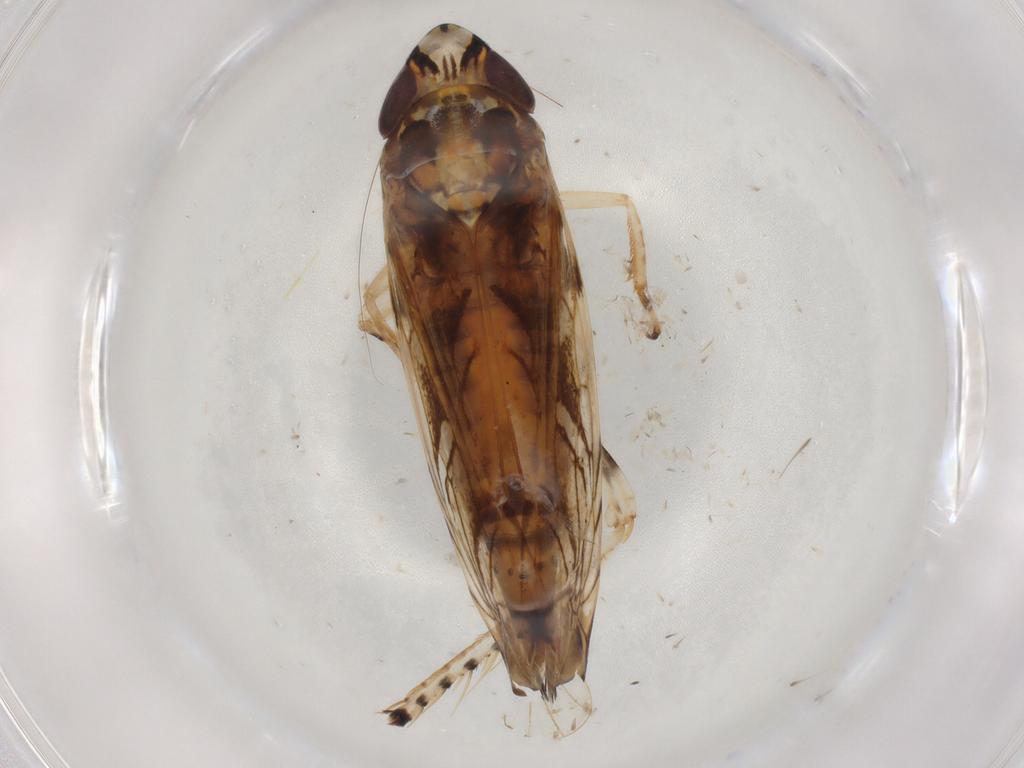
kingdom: Animalia
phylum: Arthropoda
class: Insecta
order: Hemiptera
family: Cicadellidae
